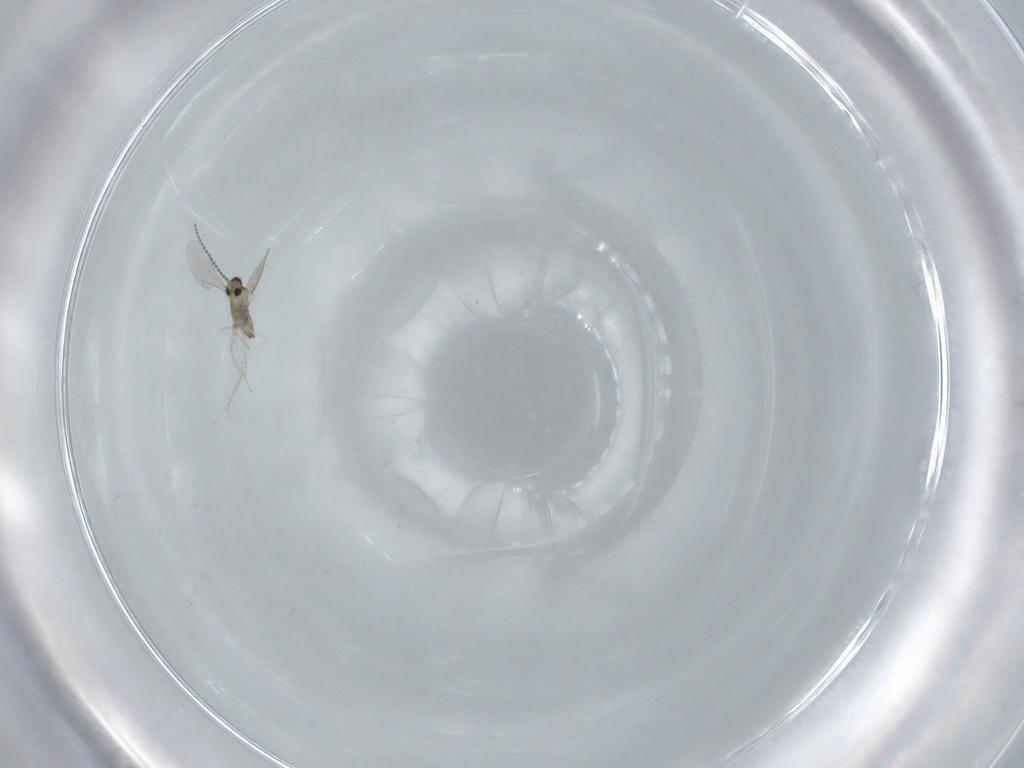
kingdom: Animalia
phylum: Arthropoda
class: Insecta
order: Diptera
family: Cecidomyiidae
